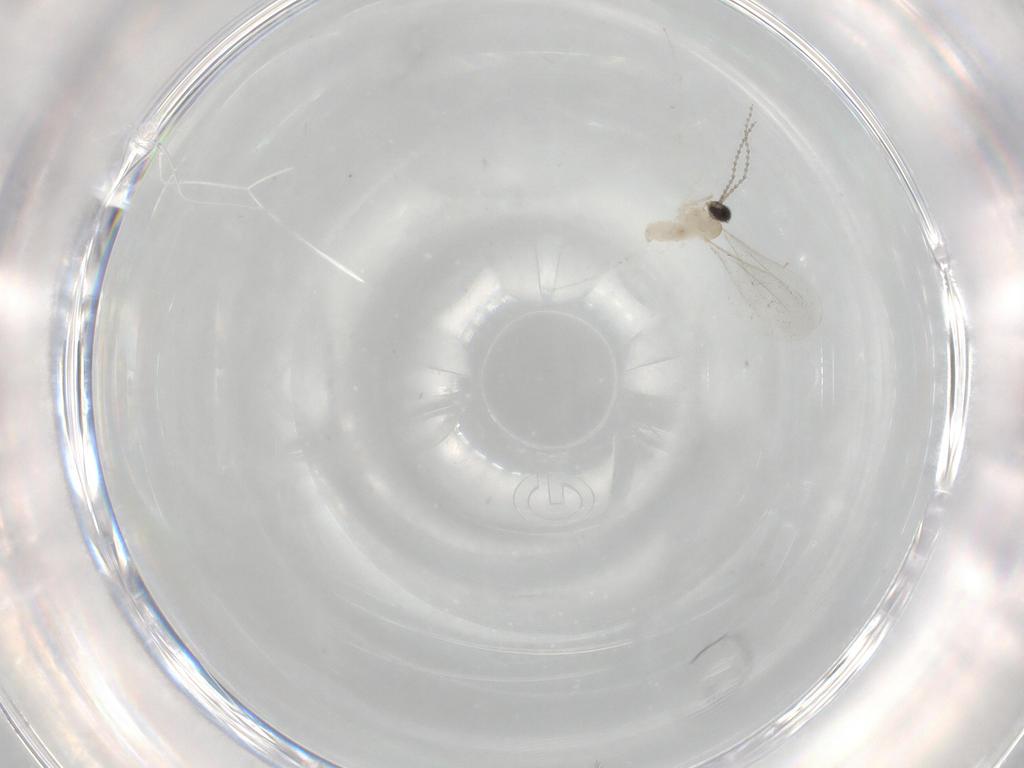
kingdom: Animalia
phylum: Arthropoda
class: Insecta
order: Diptera
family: Cecidomyiidae
